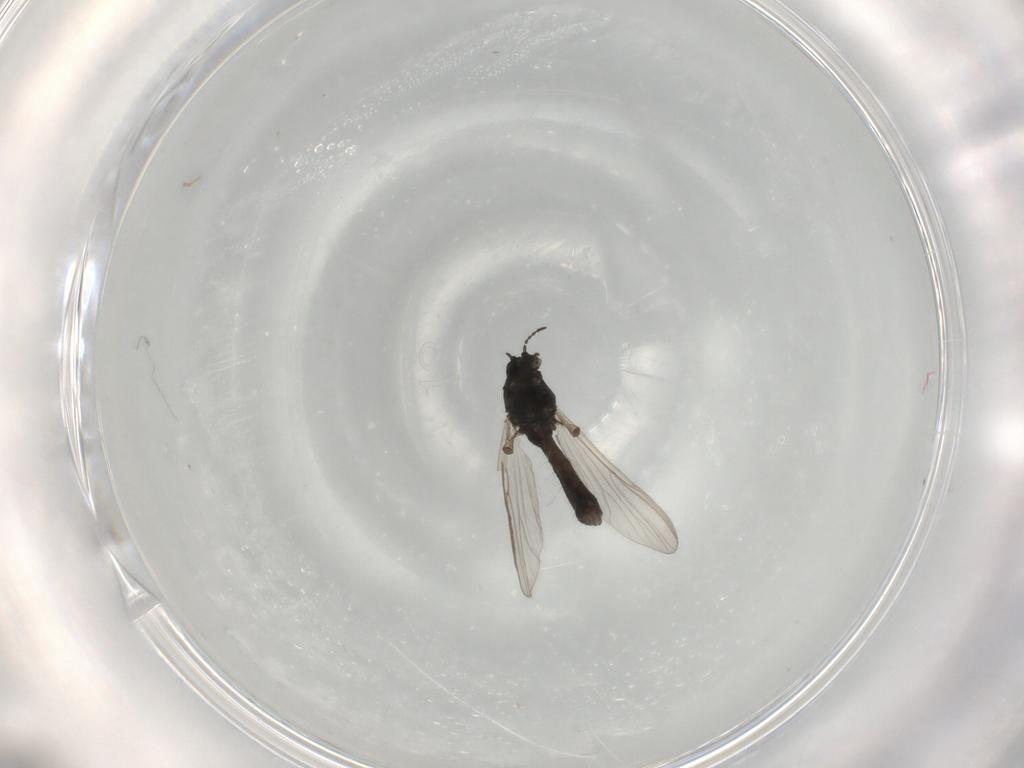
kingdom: Animalia
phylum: Arthropoda
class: Insecta
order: Diptera
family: Chironomidae
